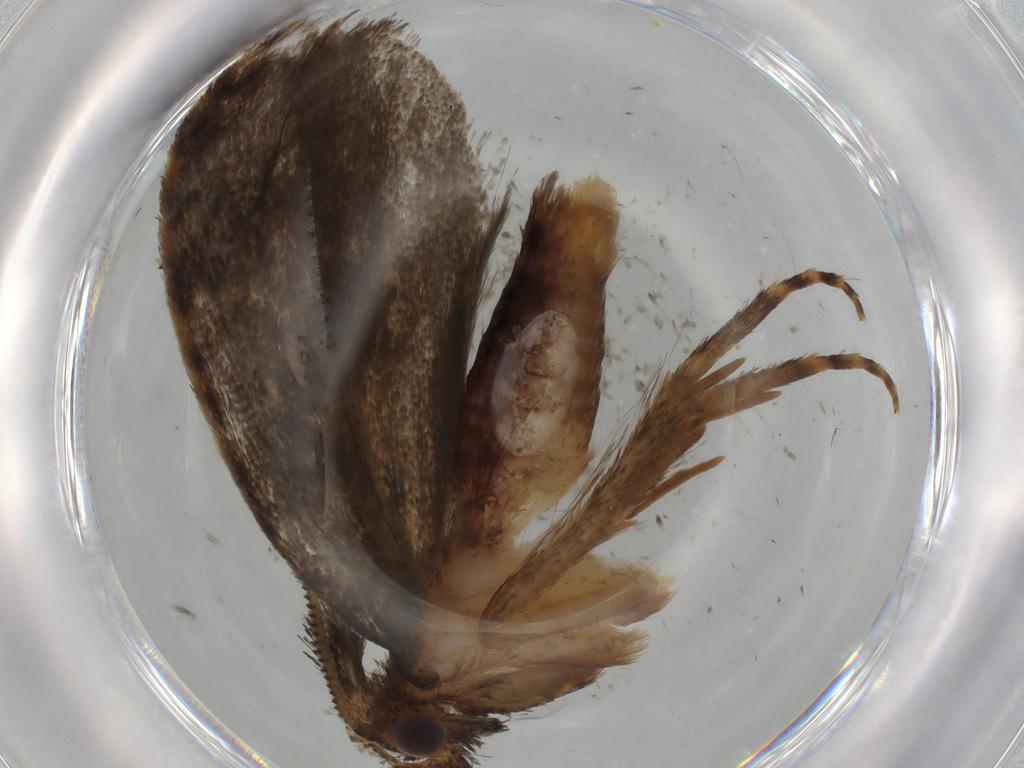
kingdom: Animalia
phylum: Arthropoda
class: Insecta
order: Lepidoptera
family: Tineidae
